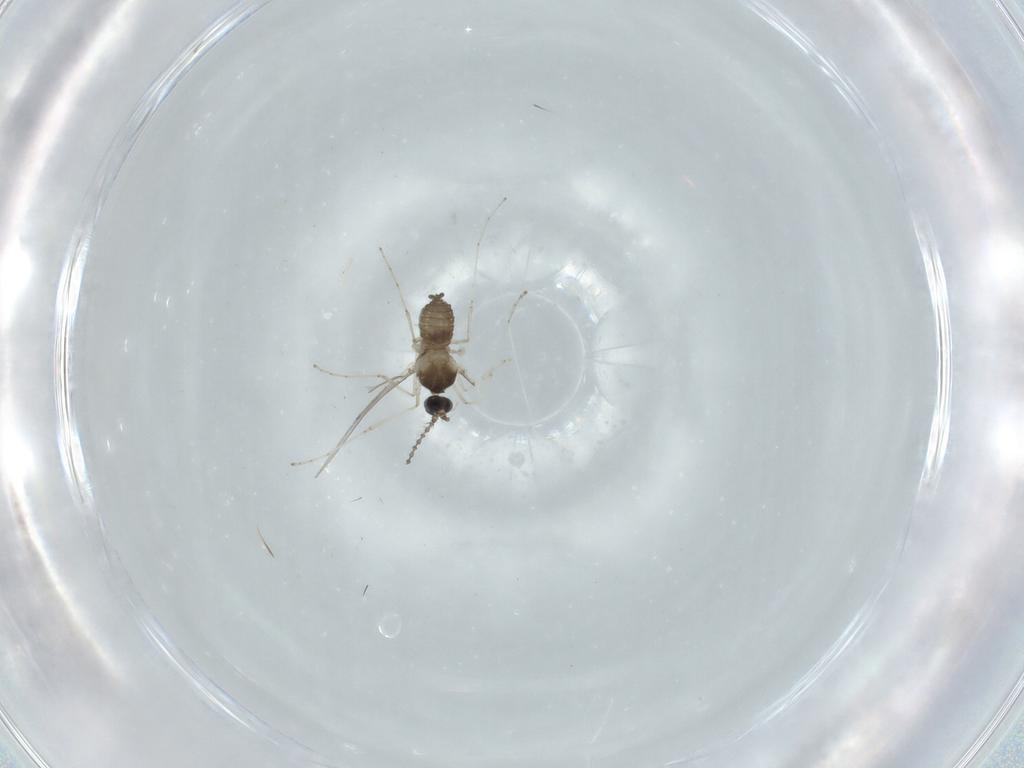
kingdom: Animalia
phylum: Arthropoda
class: Insecta
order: Diptera
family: Cecidomyiidae
